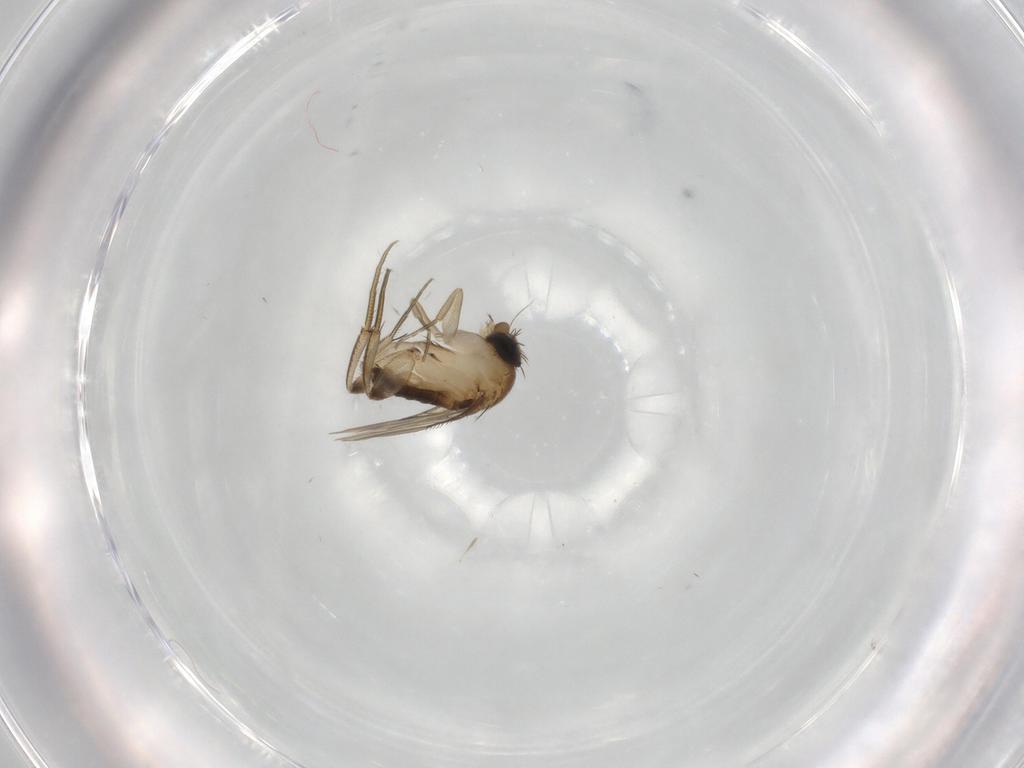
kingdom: Animalia
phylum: Arthropoda
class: Insecta
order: Diptera
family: Phoridae
